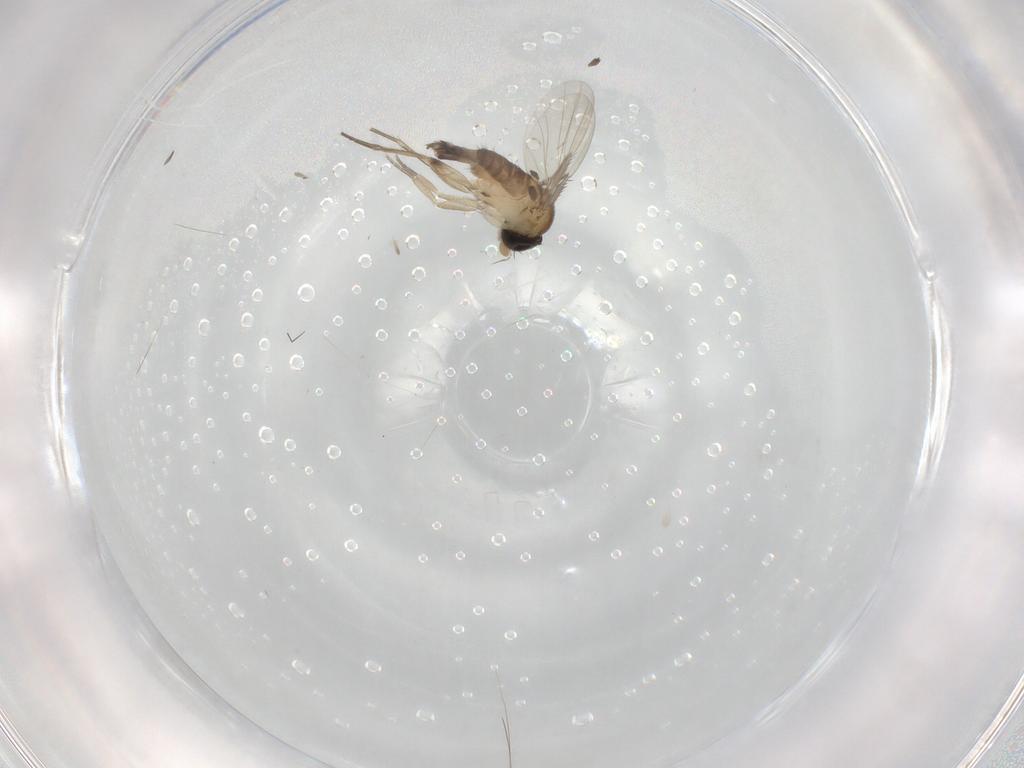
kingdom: Animalia
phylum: Arthropoda
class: Insecta
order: Diptera
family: Phoridae
